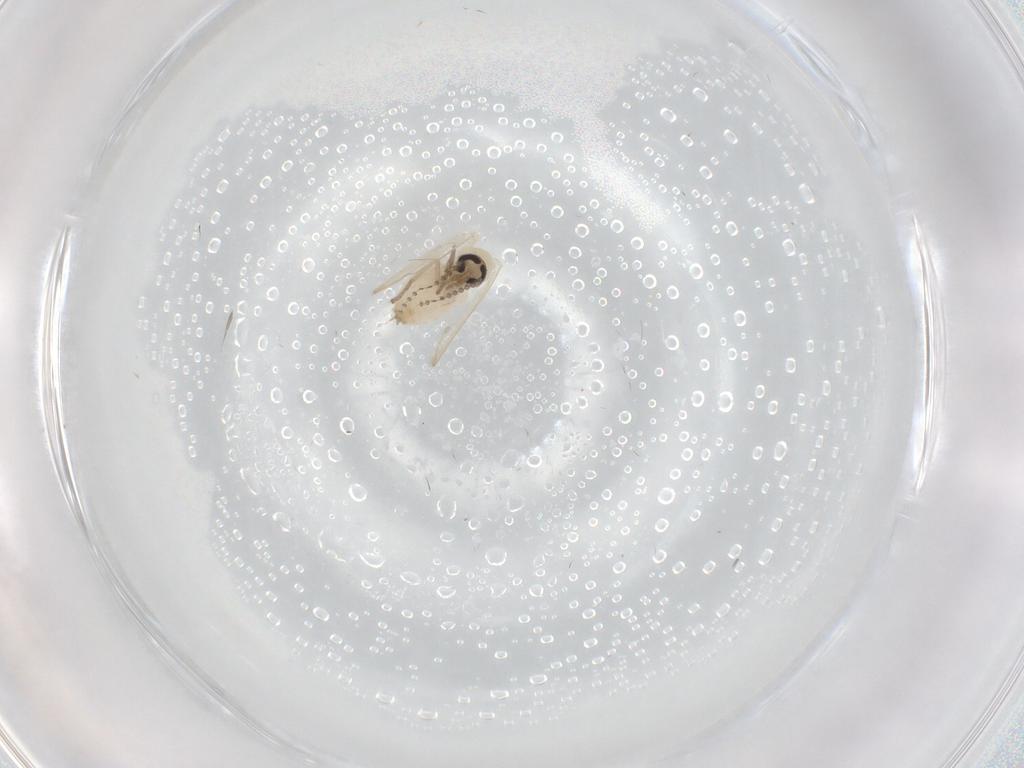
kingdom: Animalia
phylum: Arthropoda
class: Insecta
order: Diptera
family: Psychodidae
